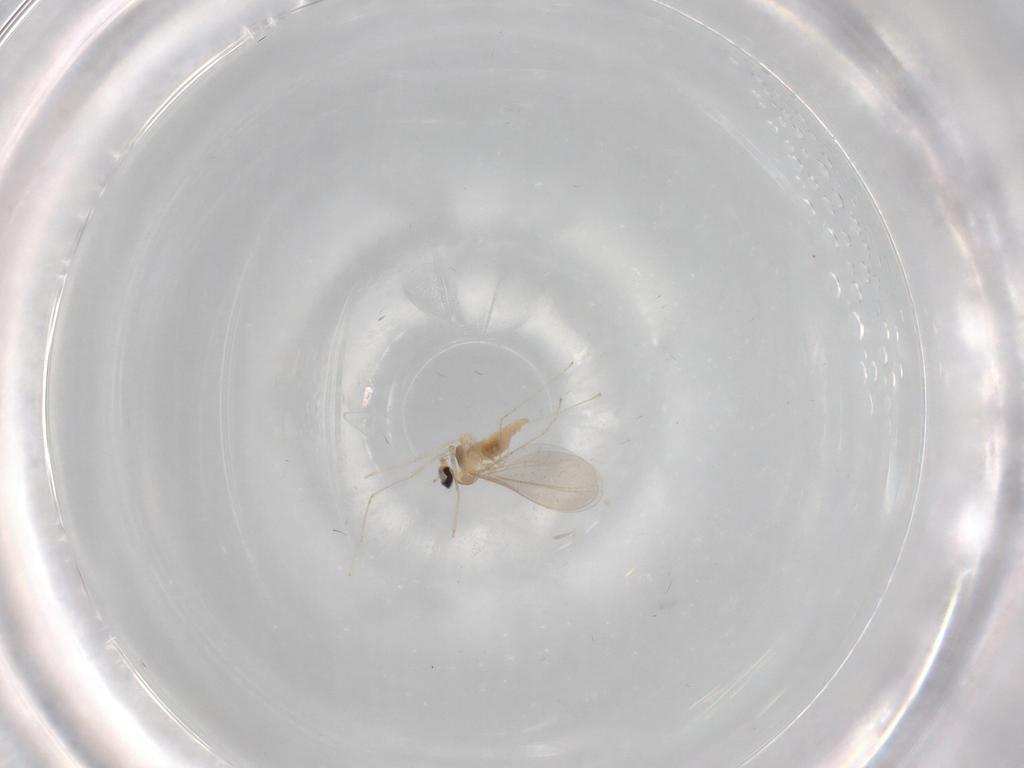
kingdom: Animalia
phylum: Arthropoda
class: Insecta
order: Diptera
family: Cecidomyiidae
